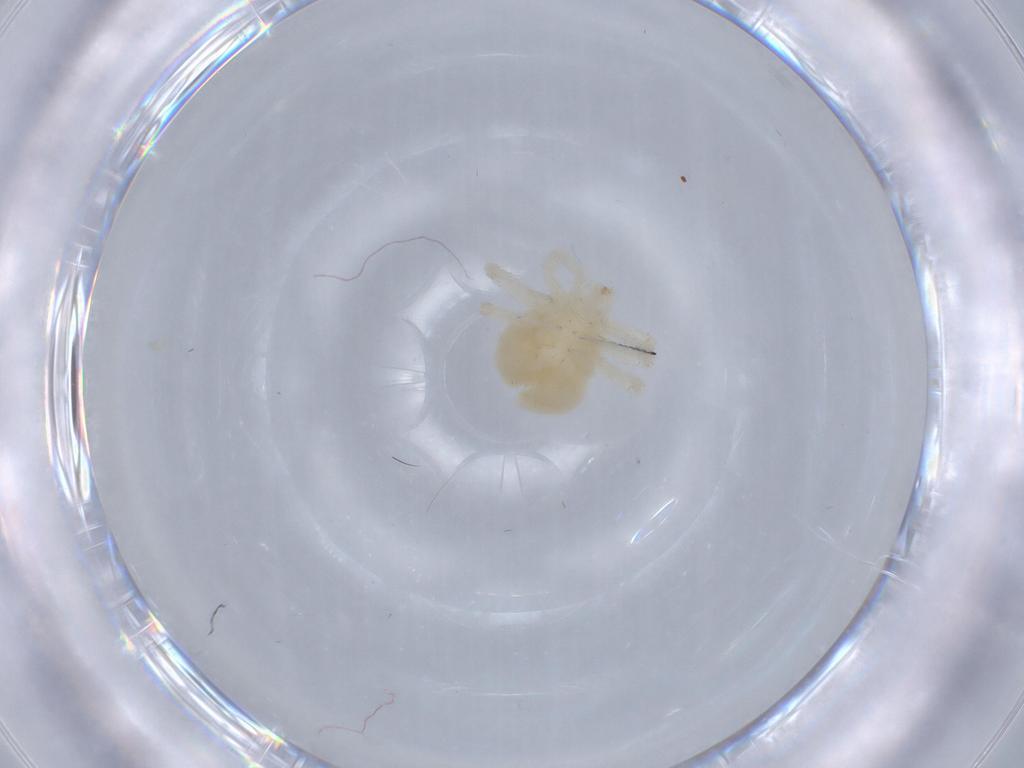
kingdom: Animalia
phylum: Arthropoda
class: Arachnida
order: Trombidiformes
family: Anystidae
